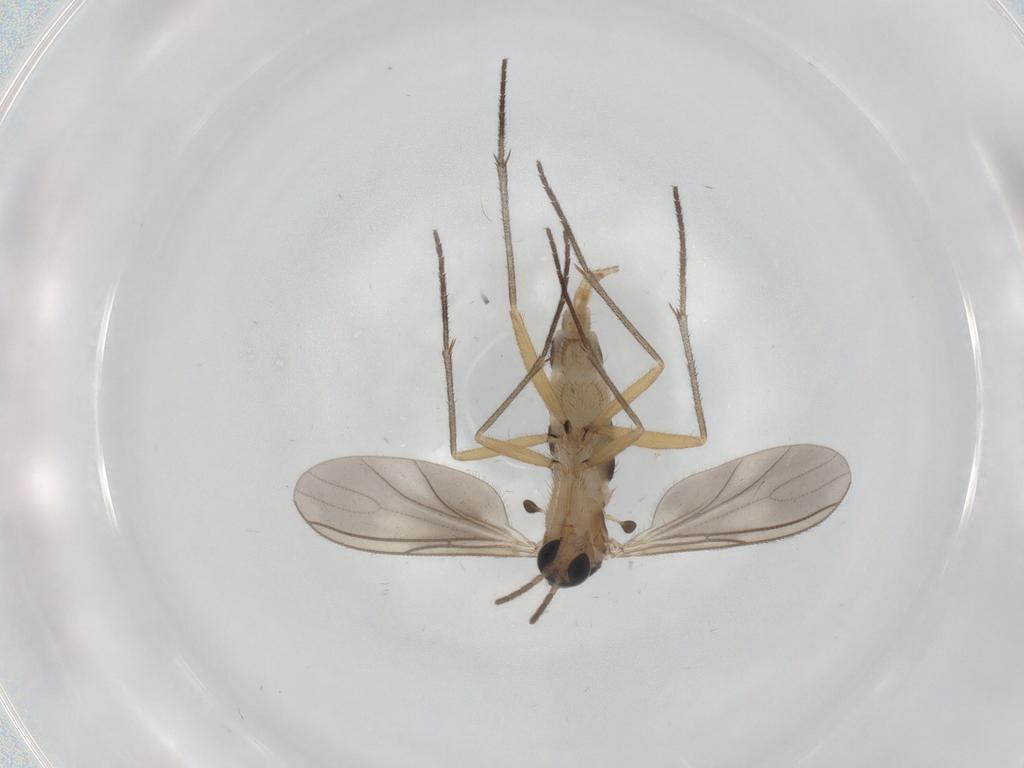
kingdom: Animalia
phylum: Arthropoda
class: Insecta
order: Diptera
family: Sciaridae
